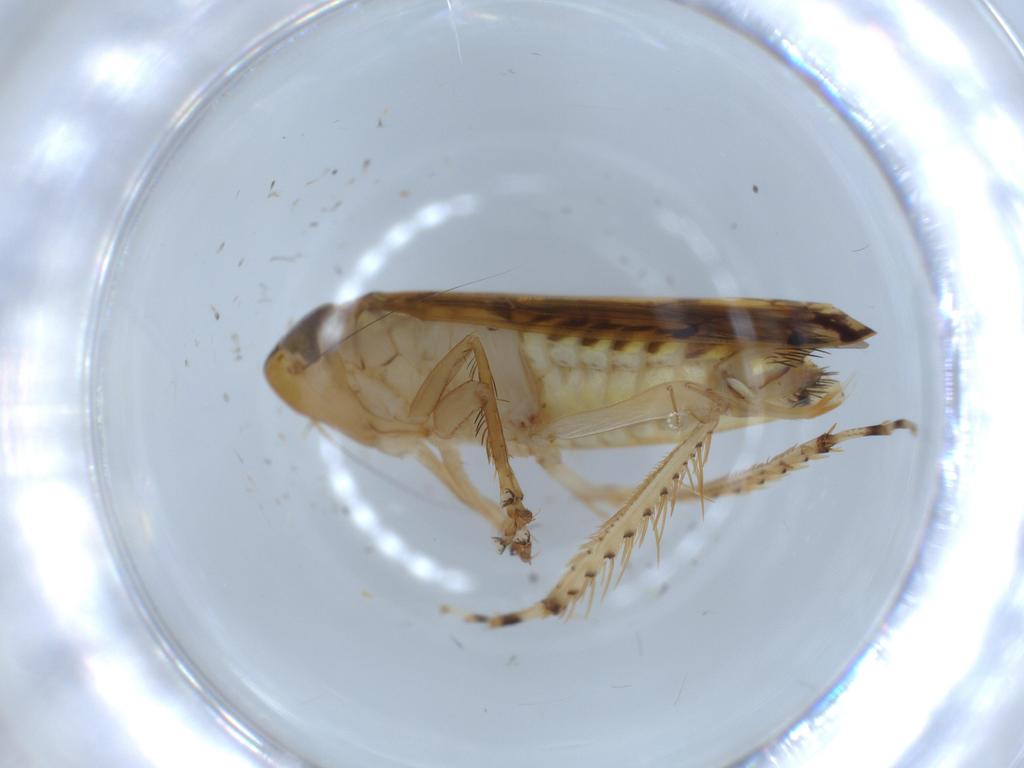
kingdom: Animalia
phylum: Arthropoda
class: Insecta
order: Hemiptera
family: Cicadellidae
